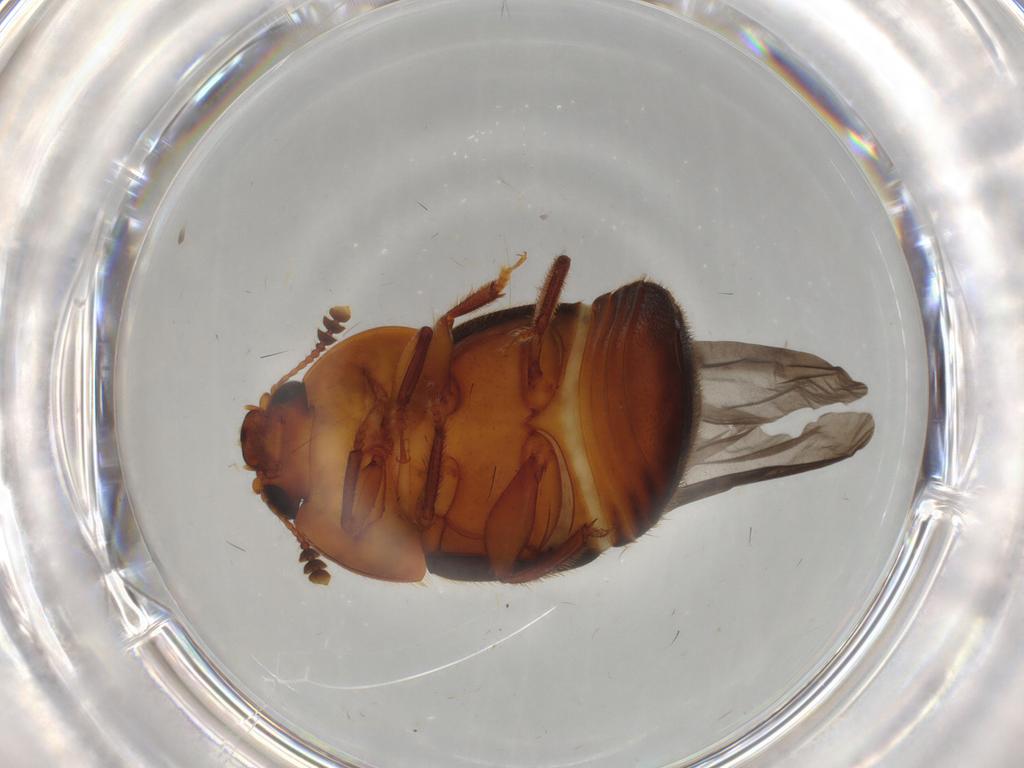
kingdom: Animalia
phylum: Arthropoda
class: Insecta
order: Coleoptera
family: Nitidulidae
